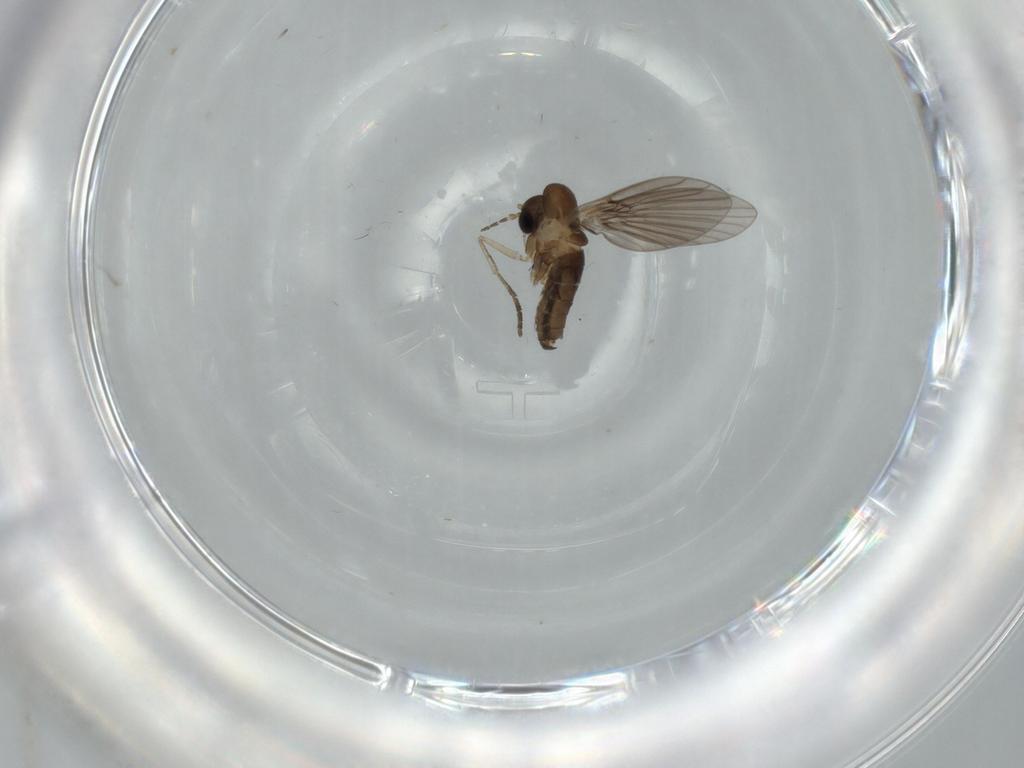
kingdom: Animalia
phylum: Arthropoda
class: Insecta
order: Diptera
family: Psychodidae
